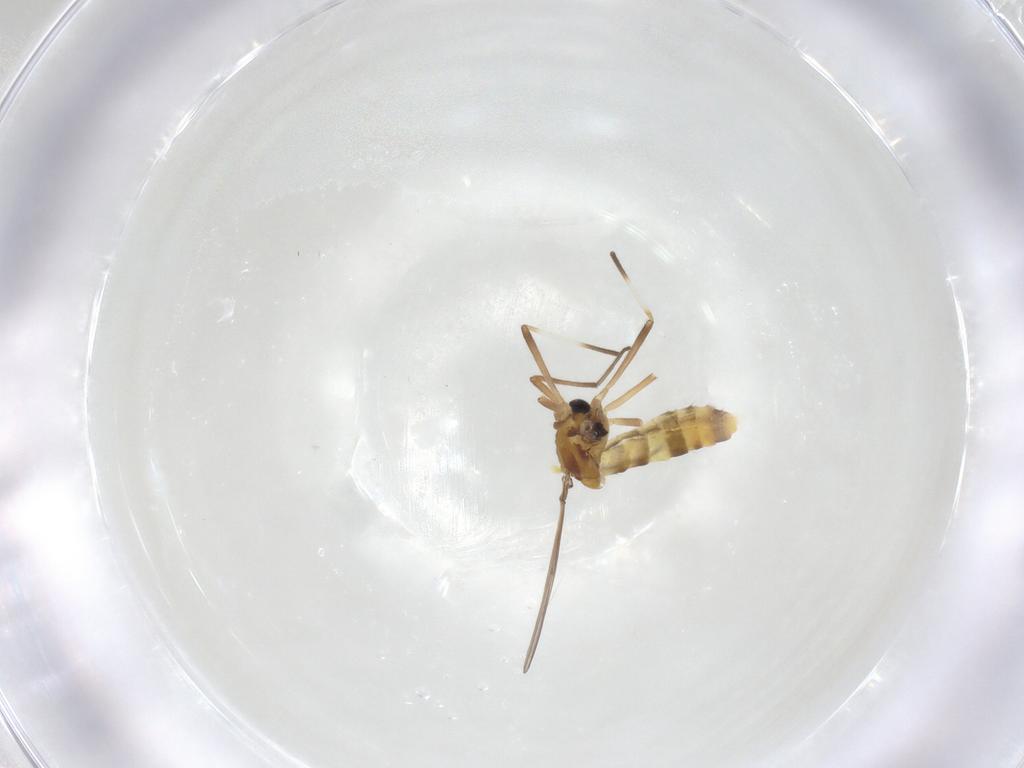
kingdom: Animalia
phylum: Arthropoda
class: Insecta
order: Diptera
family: Chironomidae
